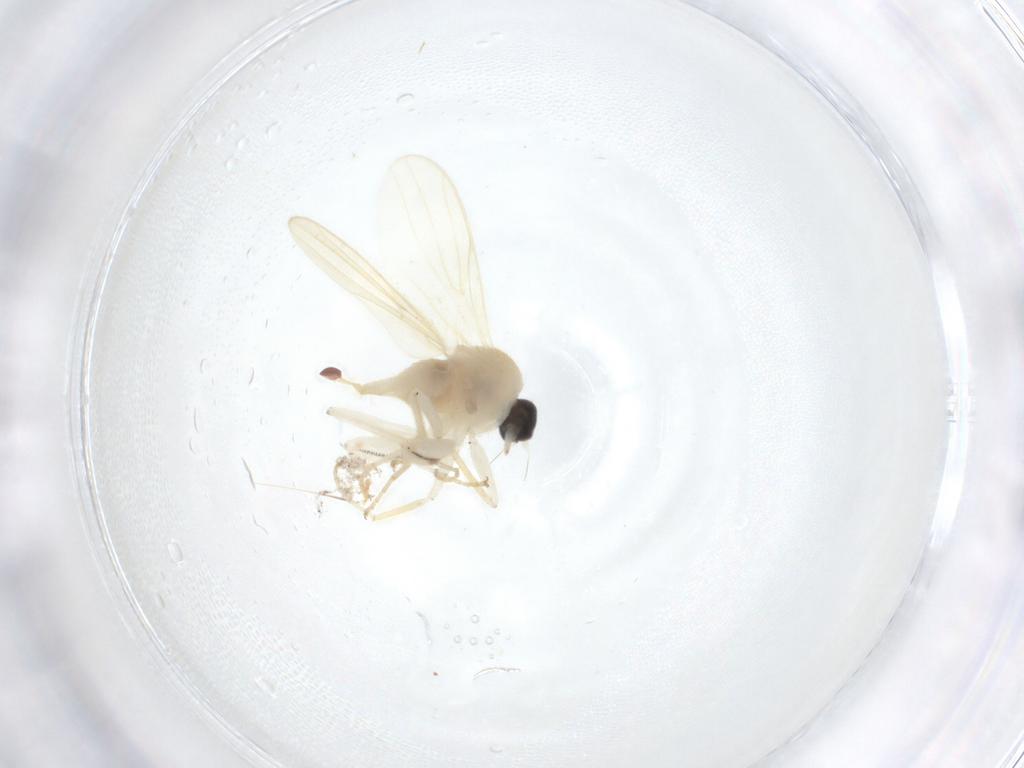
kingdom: Animalia
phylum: Arthropoda
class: Insecta
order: Diptera
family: Hybotidae
